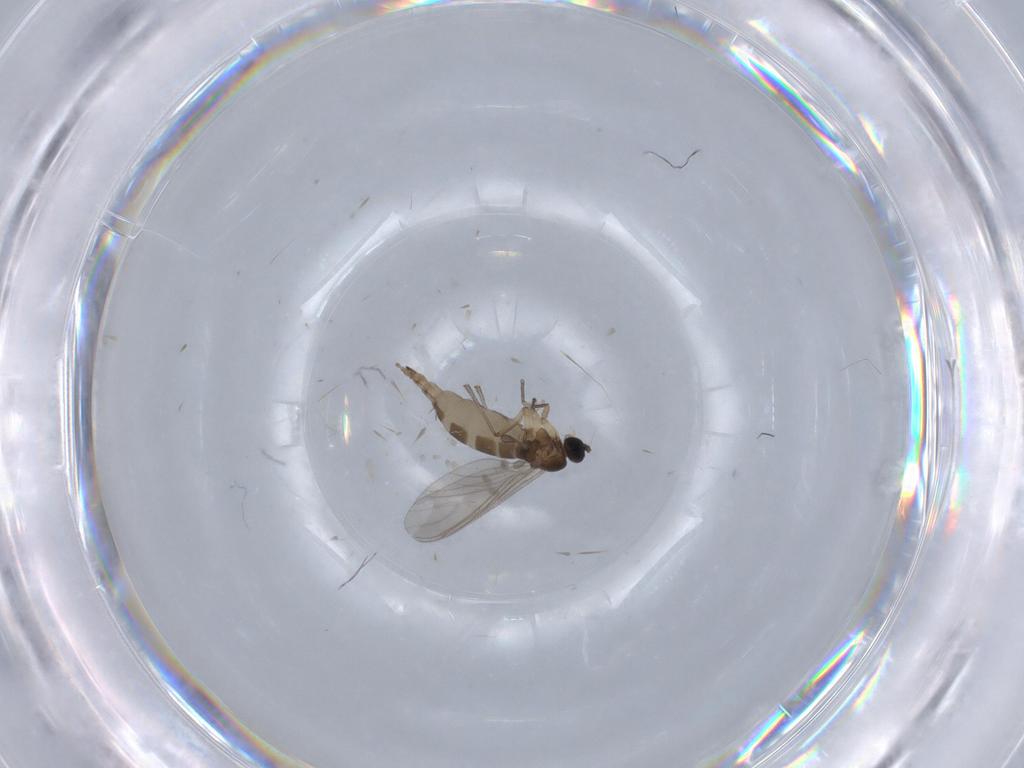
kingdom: Animalia
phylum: Arthropoda
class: Insecta
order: Diptera
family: Sciaridae
